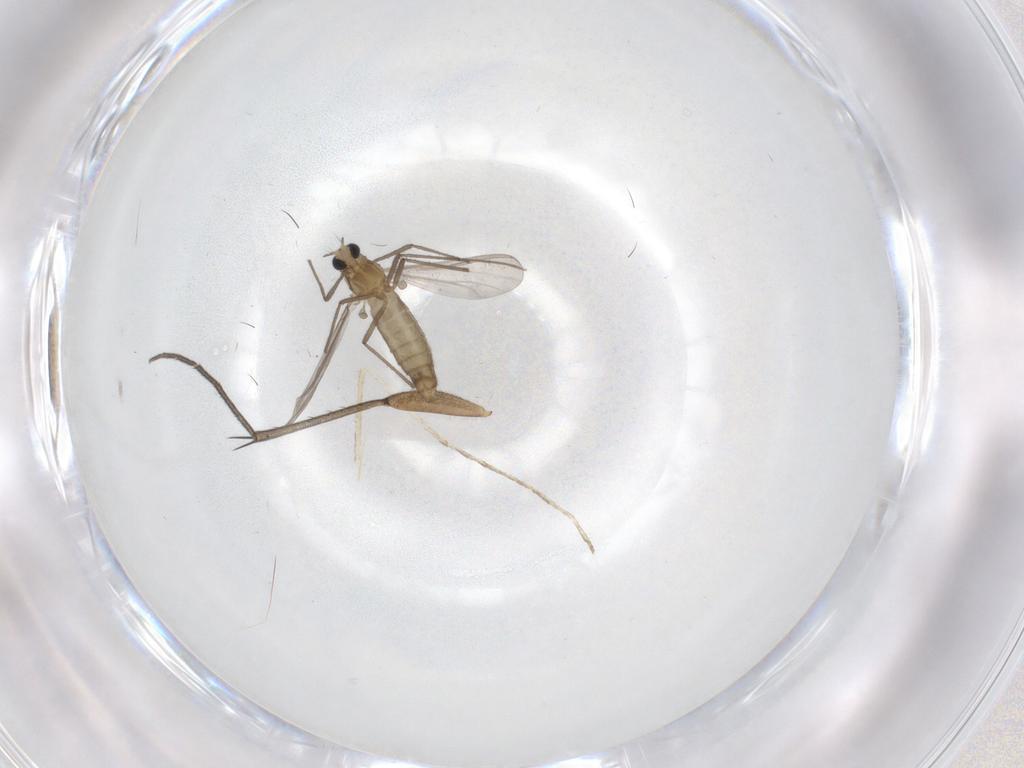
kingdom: Animalia
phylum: Arthropoda
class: Insecta
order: Diptera
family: Mycetophilidae
